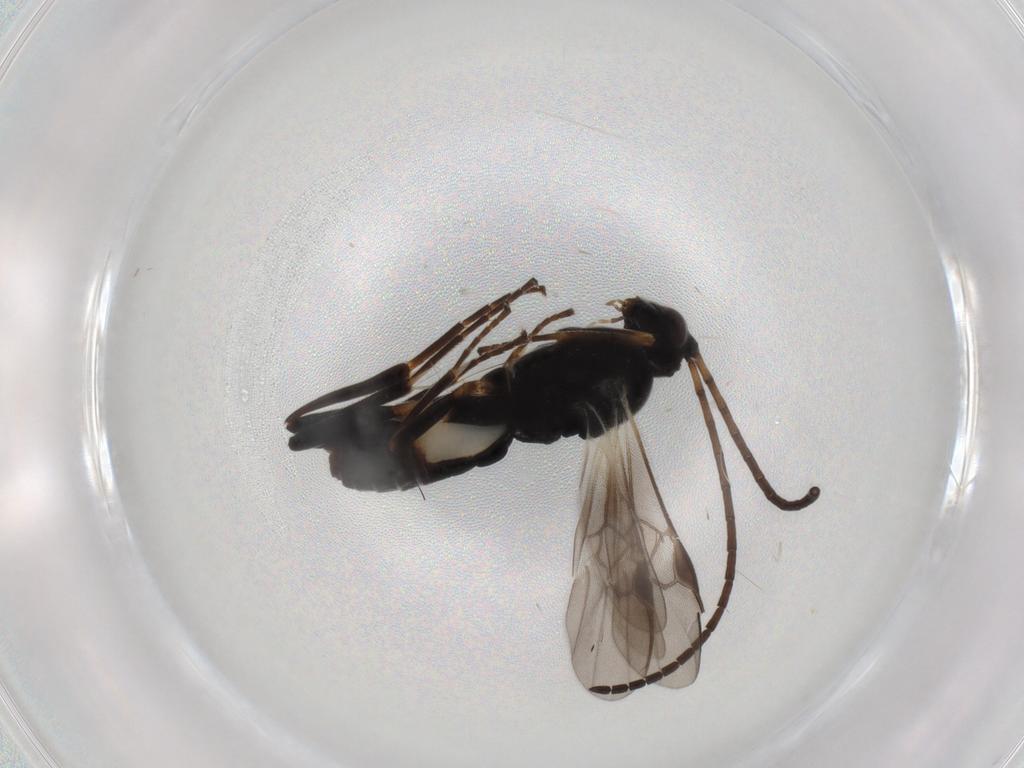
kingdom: Animalia
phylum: Arthropoda
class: Insecta
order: Hymenoptera
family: Braconidae
